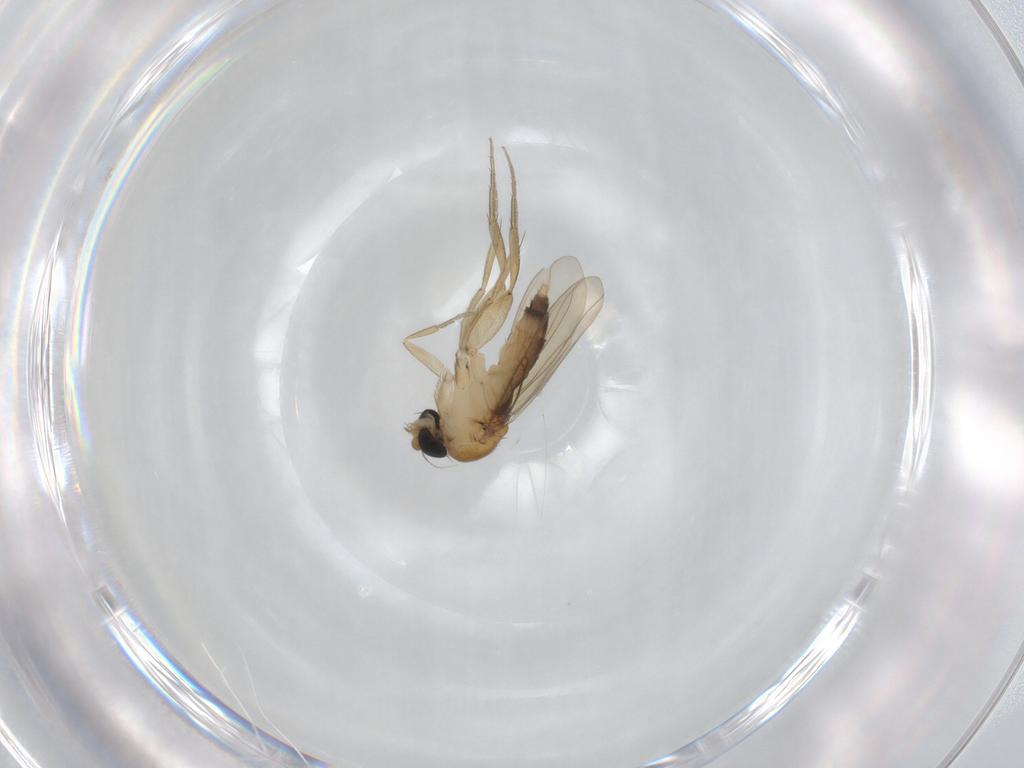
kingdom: Animalia
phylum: Arthropoda
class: Insecta
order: Diptera
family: Phoridae
